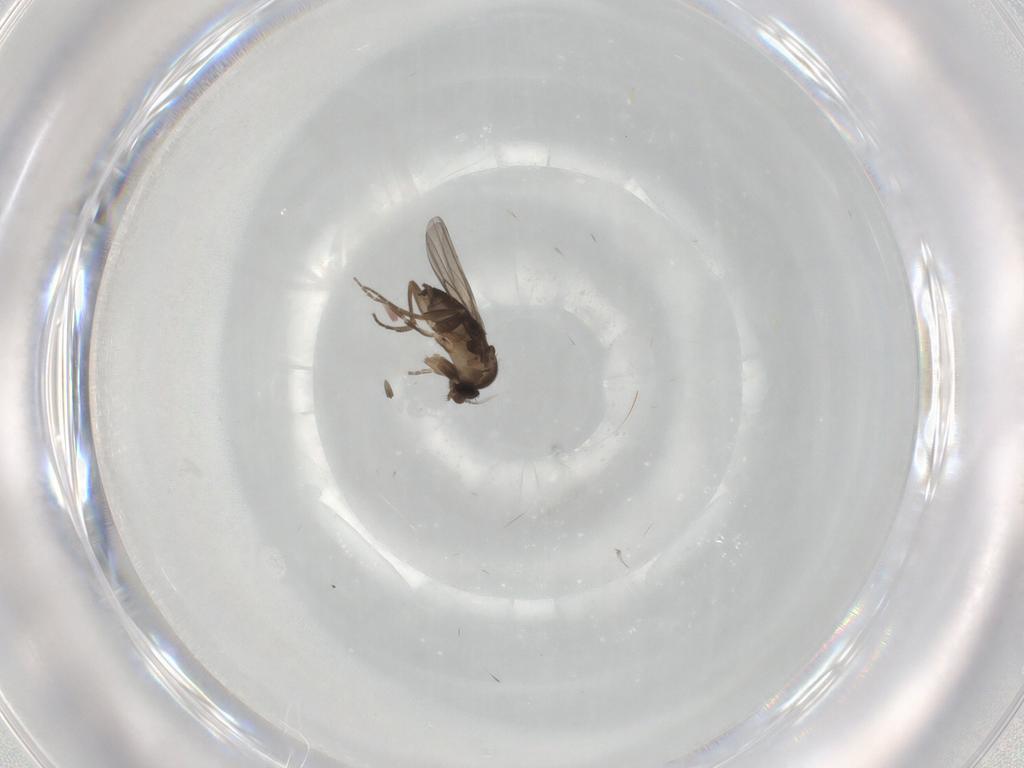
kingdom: Animalia
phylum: Arthropoda
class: Insecta
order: Diptera
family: Phoridae
